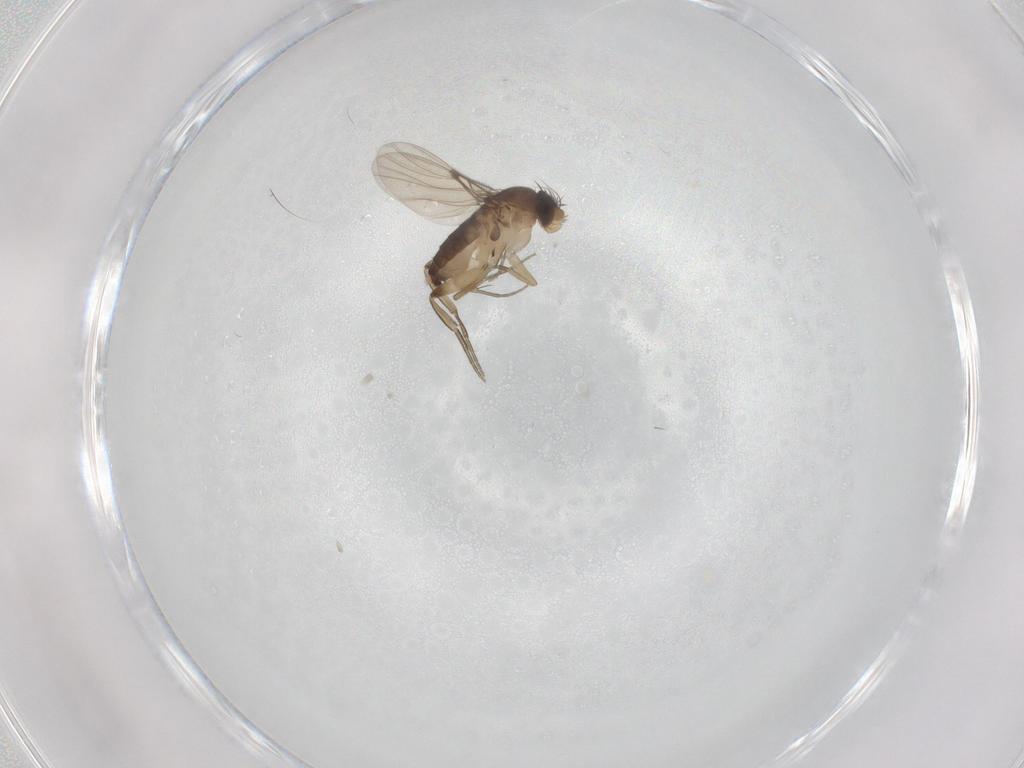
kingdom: Animalia
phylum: Arthropoda
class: Insecta
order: Diptera
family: Phoridae
